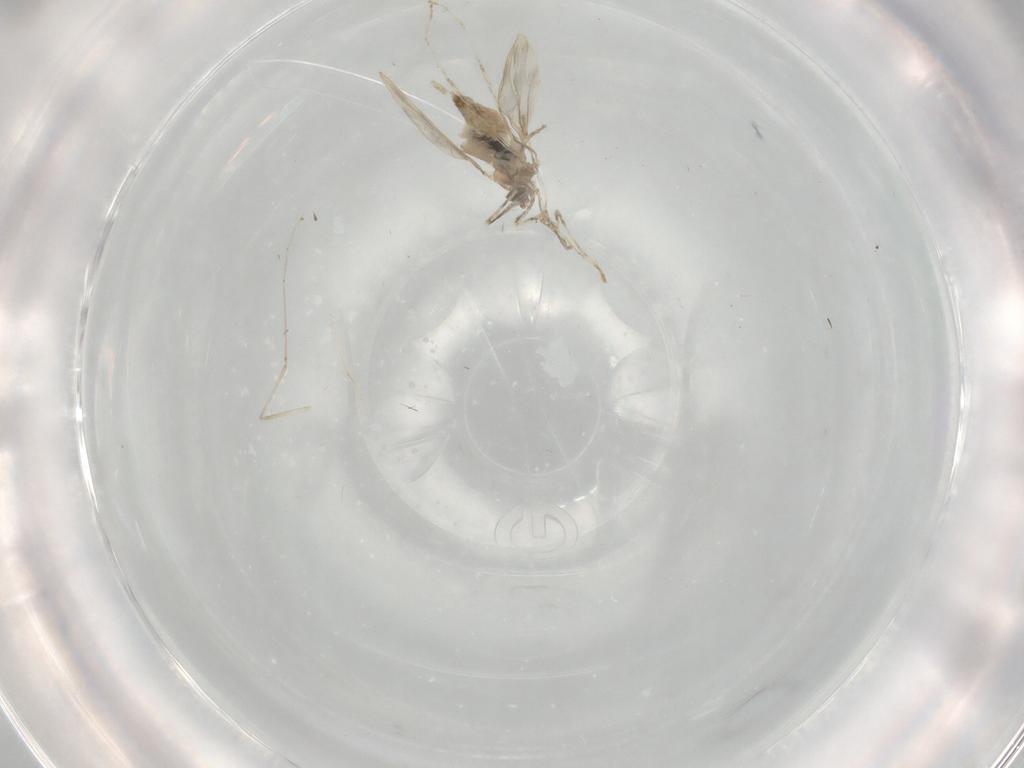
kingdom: Animalia
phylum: Arthropoda
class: Insecta
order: Diptera
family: Cecidomyiidae
